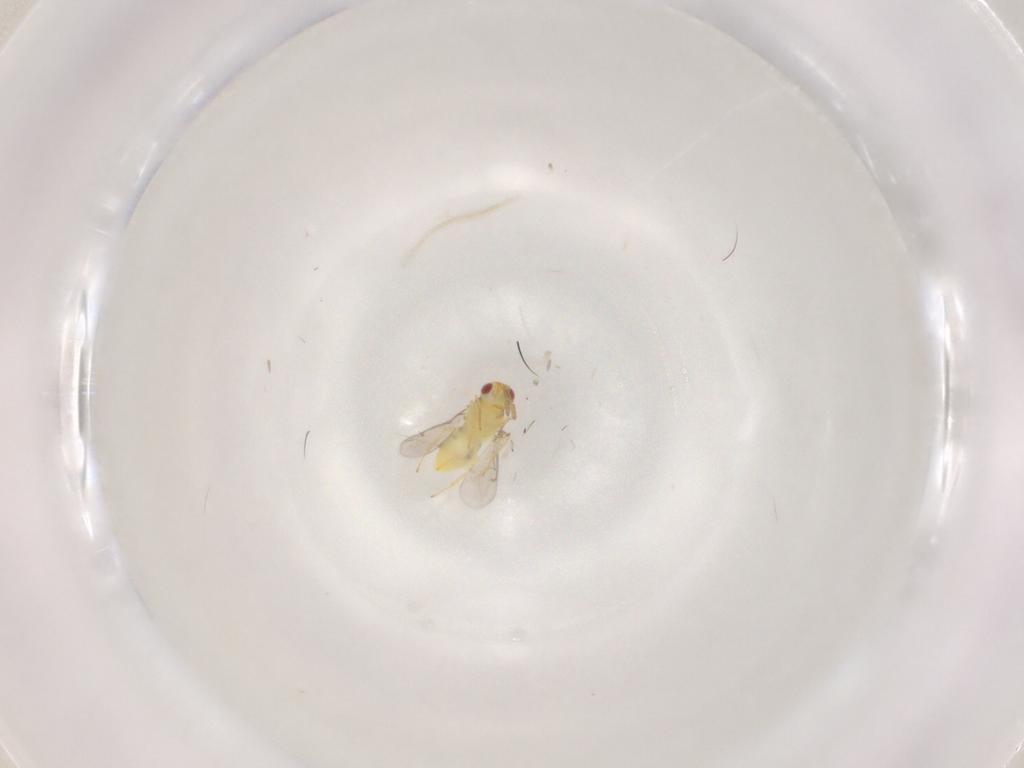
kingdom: Animalia
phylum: Arthropoda
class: Insecta
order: Hymenoptera
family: Aphelinidae
